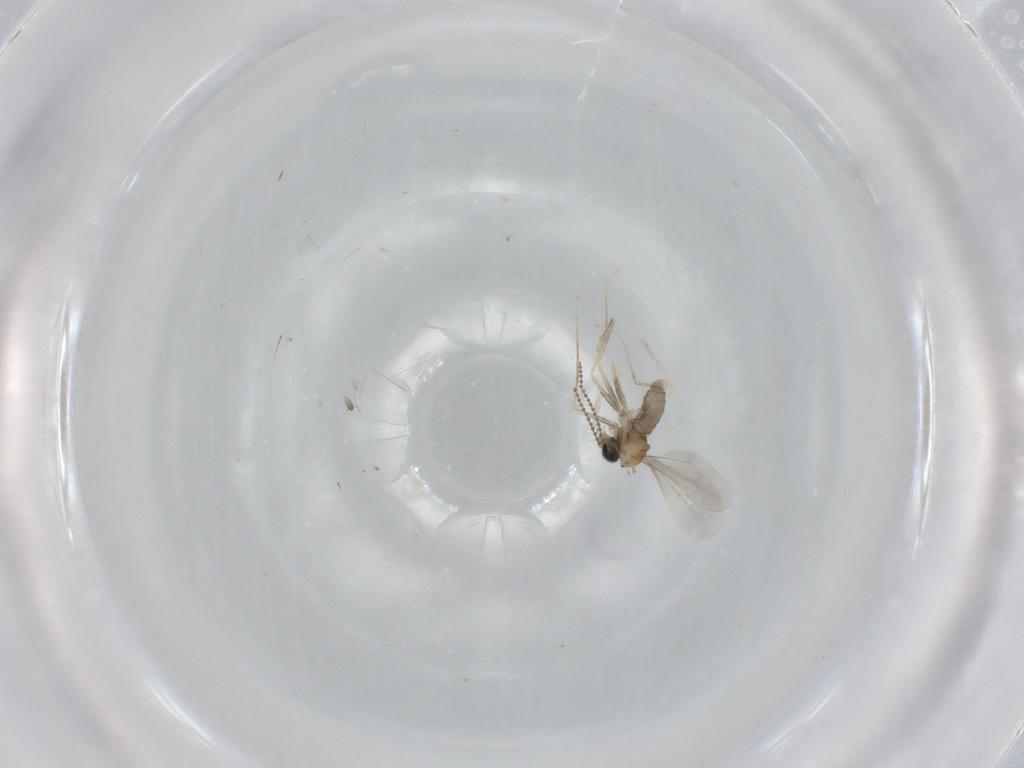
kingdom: Animalia
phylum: Arthropoda
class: Insecta
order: Diptera
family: Cecidomyiidae
